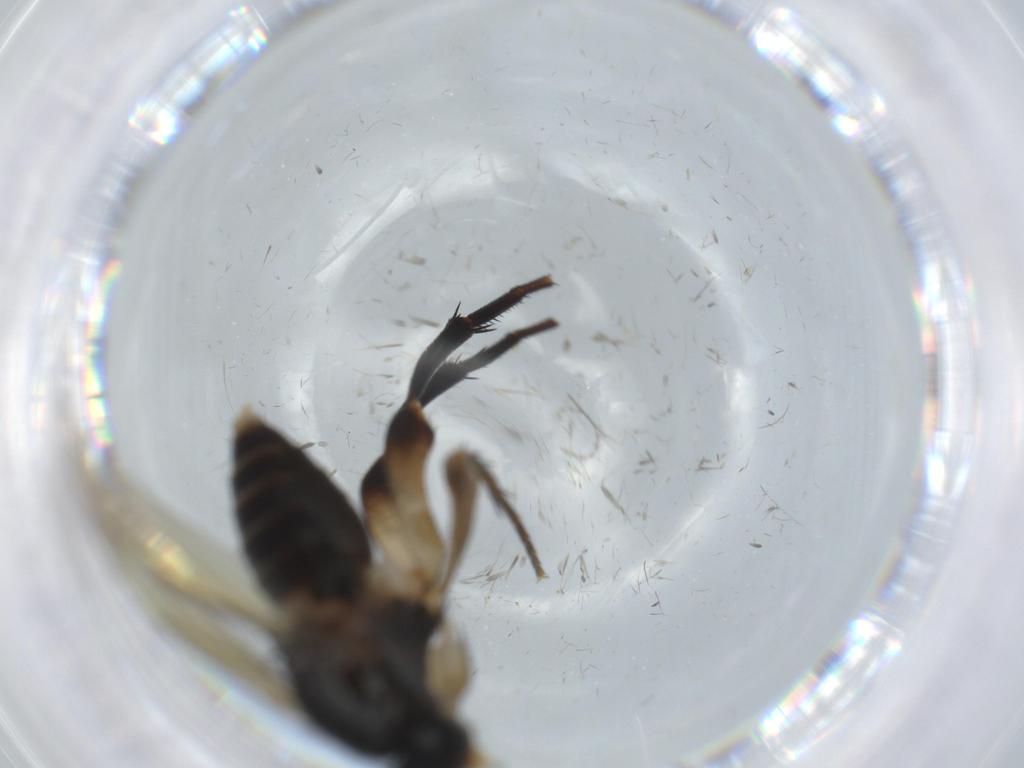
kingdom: Animalia
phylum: Arthropoda
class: Insecta
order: Diptera
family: Phoridae
